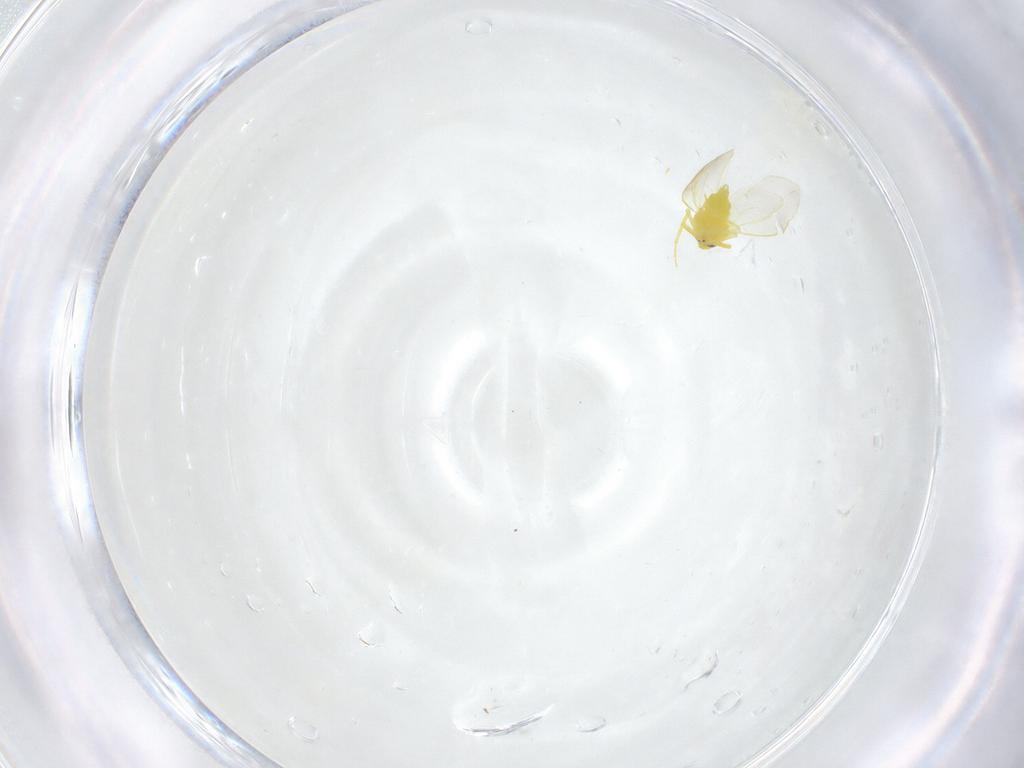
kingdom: Animalia
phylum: Arthropoda
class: Insecta
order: Hemiptera
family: Aleyrodidae
